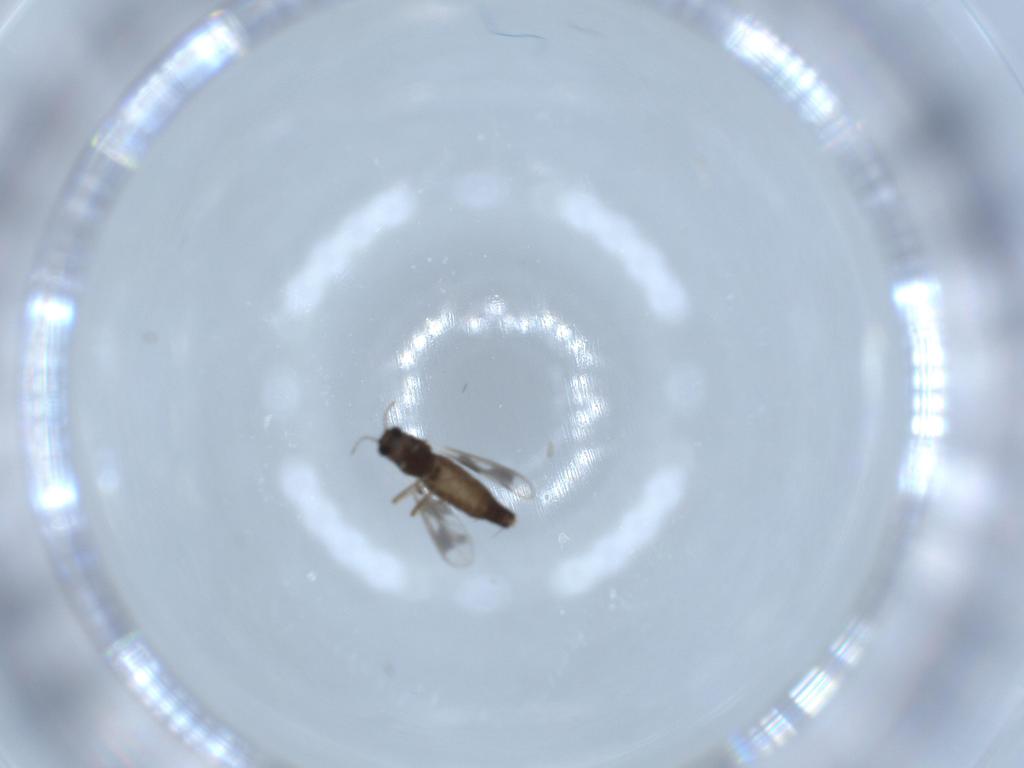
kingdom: Animalia
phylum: Arthropoda
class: Insecta
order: Diptera
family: Chironomidae
